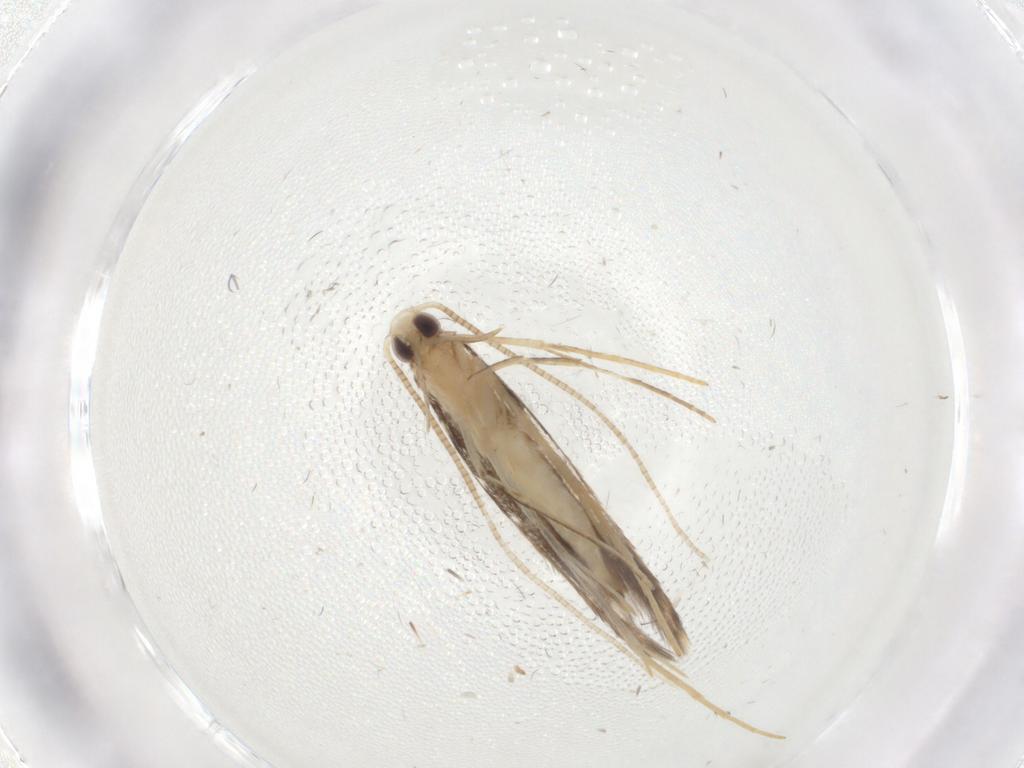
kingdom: Animalia
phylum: Arthropoda
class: Insecta
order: Lepidoptera
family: Gracillariidae
